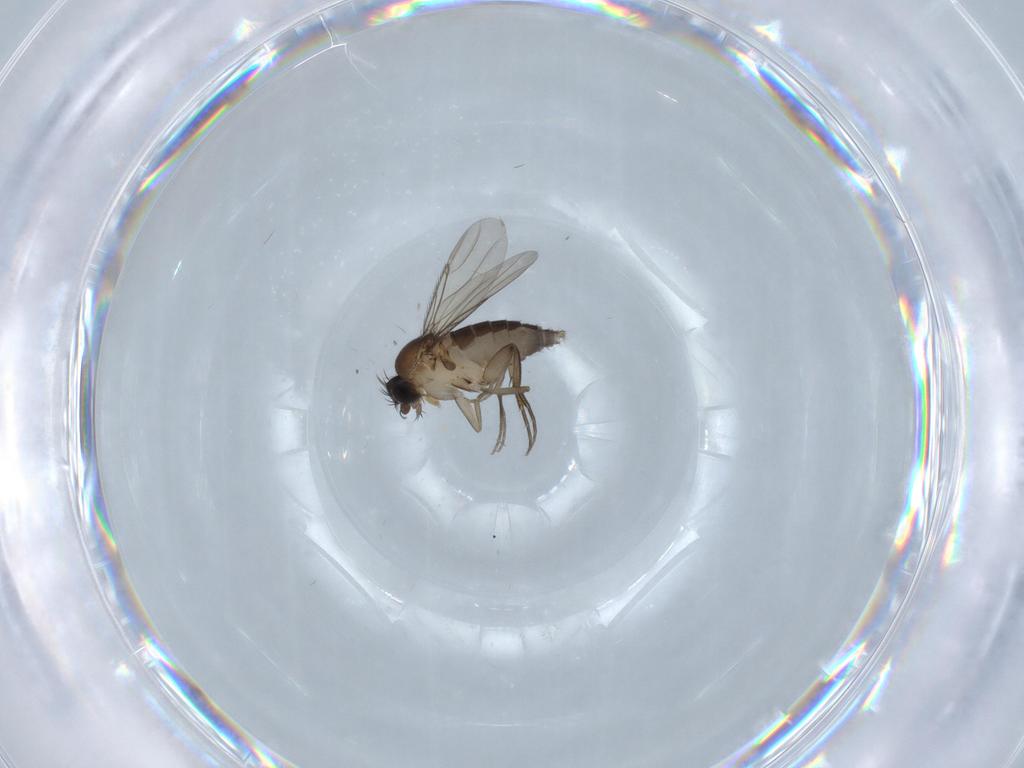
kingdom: Animalia
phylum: Arthropoda
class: Insecta
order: Diptera
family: Phoridae
